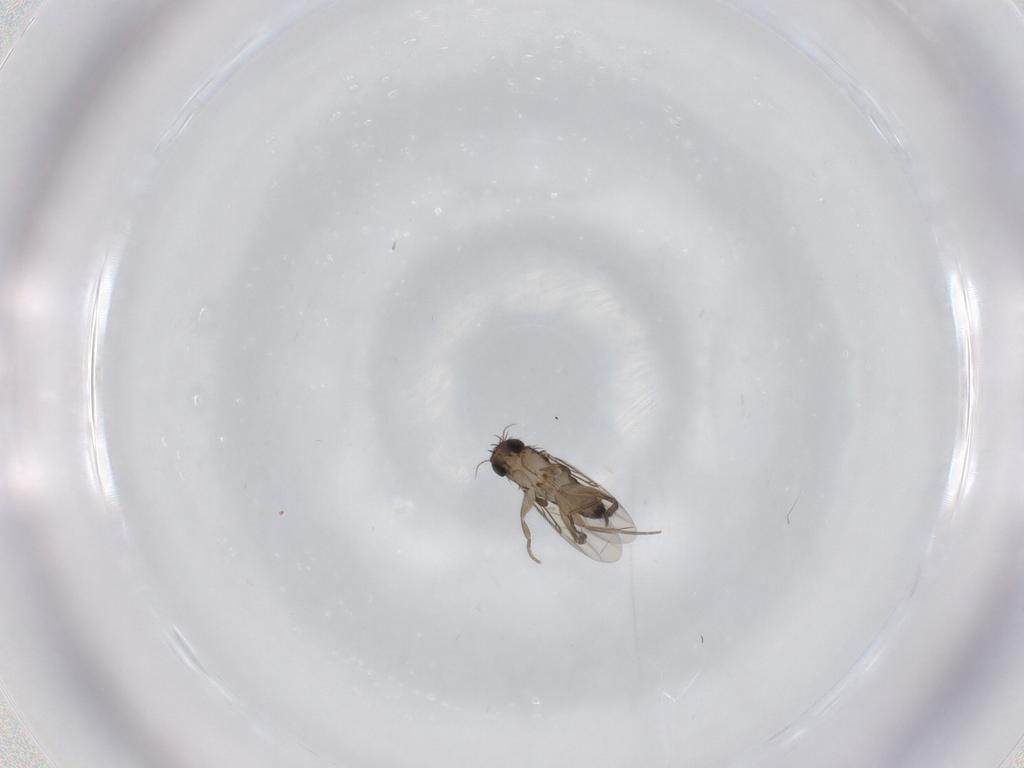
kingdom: Animalia
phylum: Arthropoda
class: Insecta
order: Diptera
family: Phoridae
